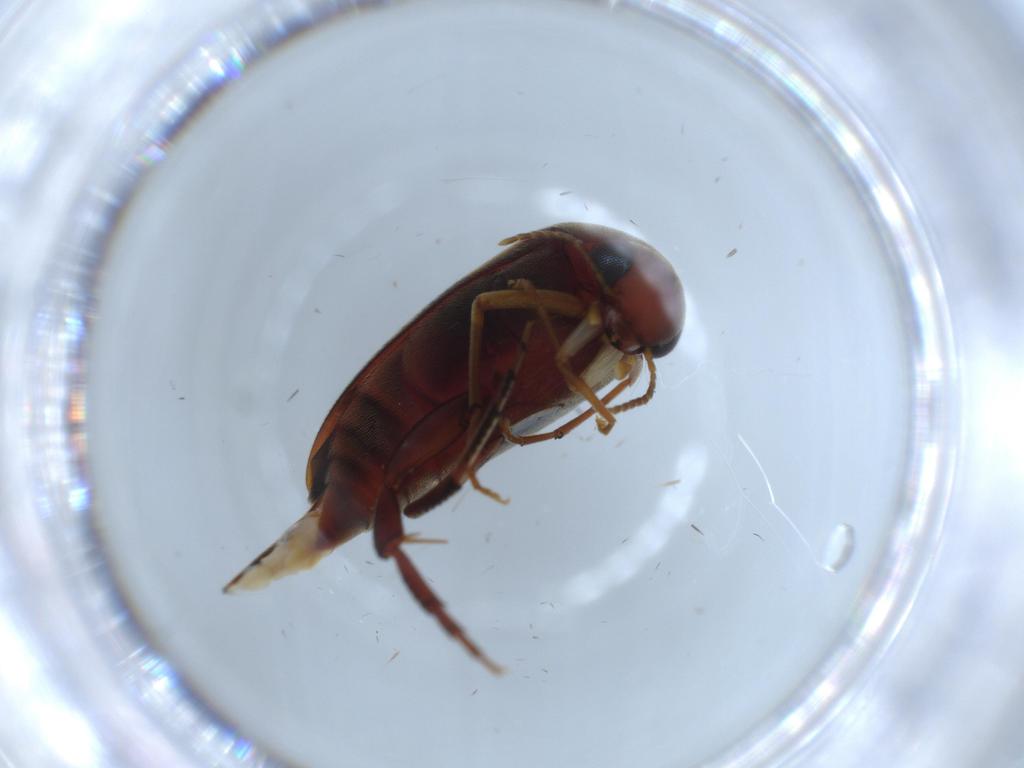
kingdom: Animalia
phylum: Arthropoda
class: Insecta
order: Coleoptera
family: Mordellidae
